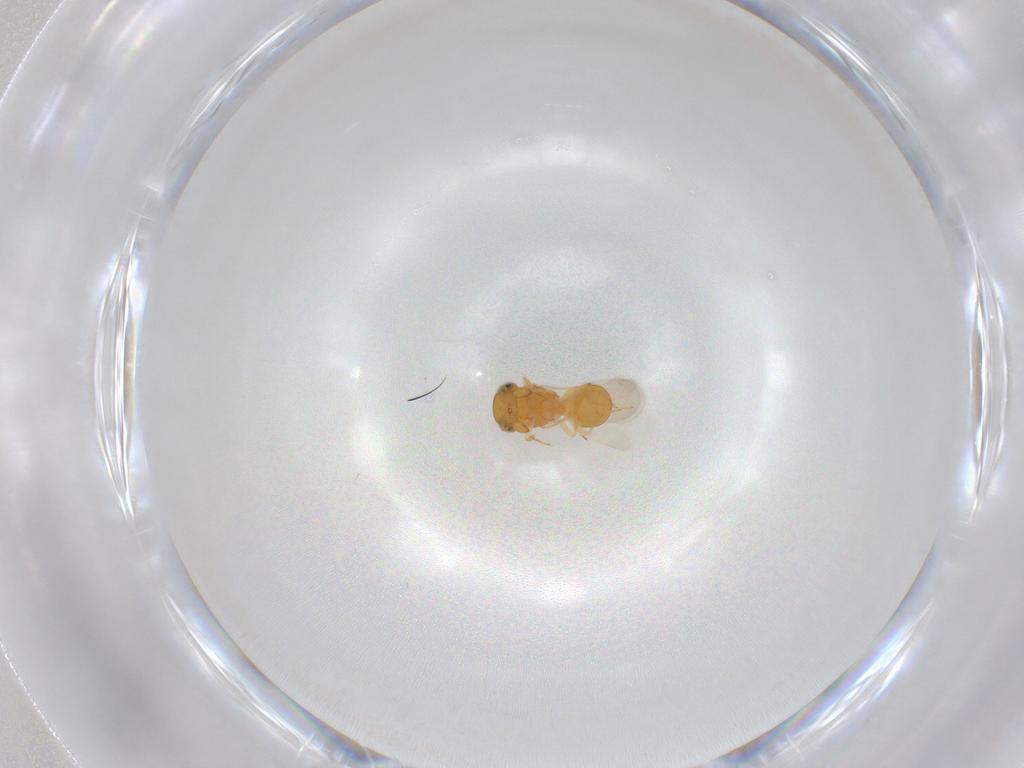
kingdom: Animalia
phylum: Arthropoda
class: Insecta
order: Hymenoptera
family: Scelionidae
